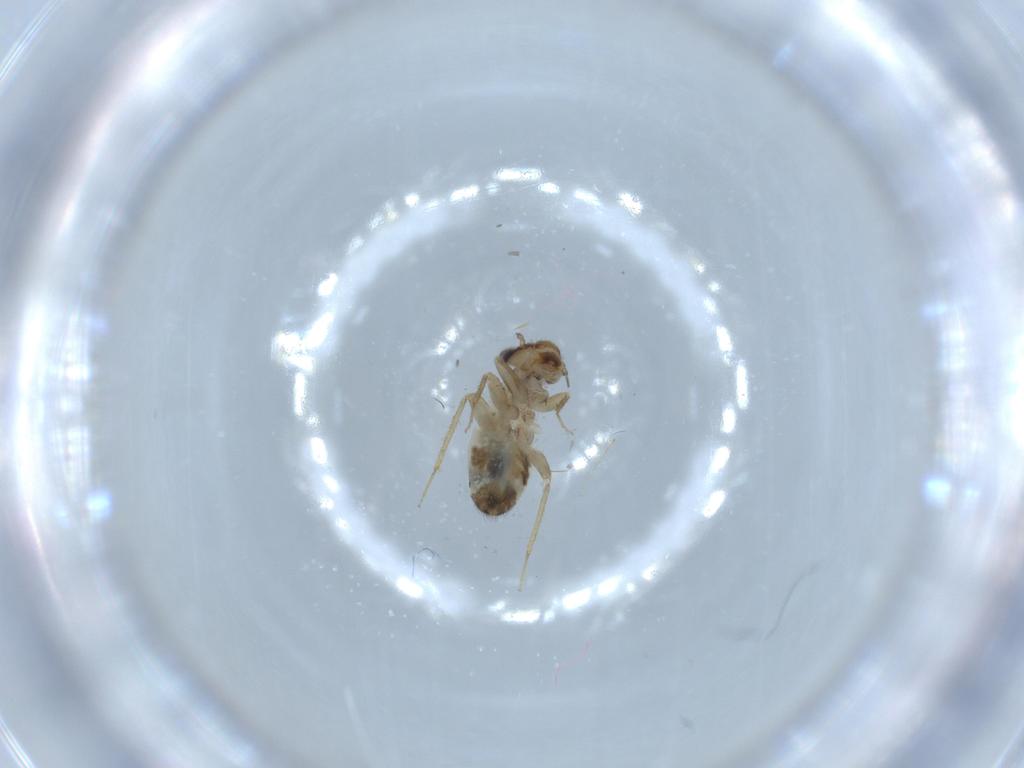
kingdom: Animalia
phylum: Arthropoda
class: Insecta
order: Psocodea
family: Lepidopsocidae
